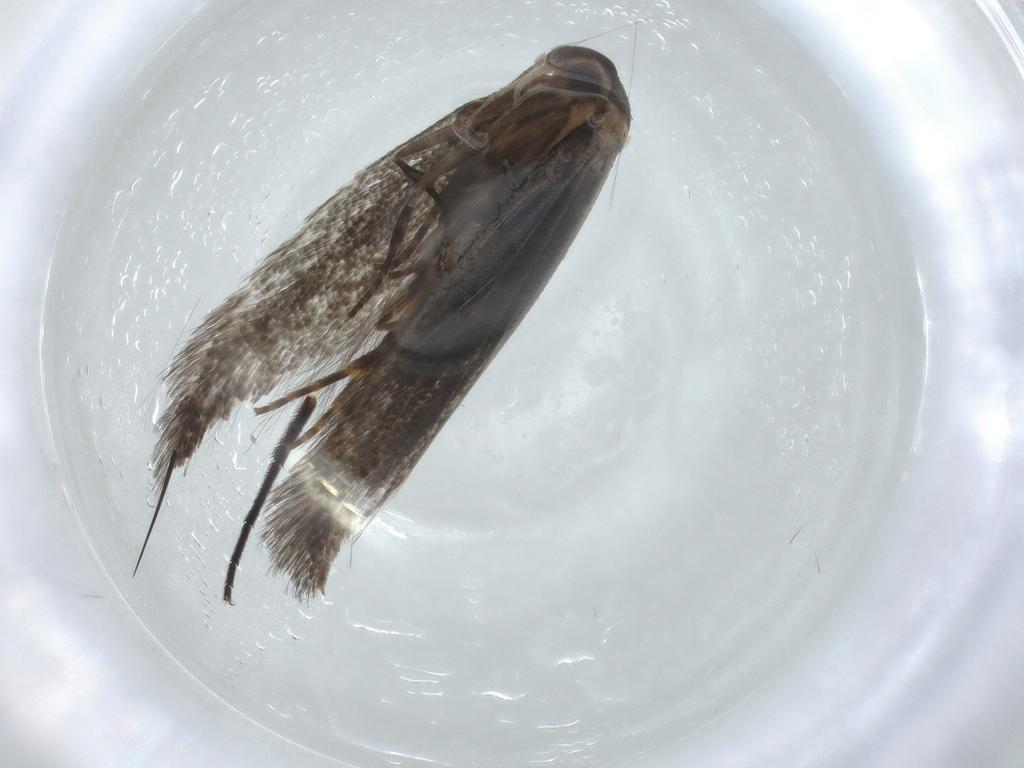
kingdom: Animalia
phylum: Arthropoda
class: Insecta
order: Lepidoptera
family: Elachistidae
